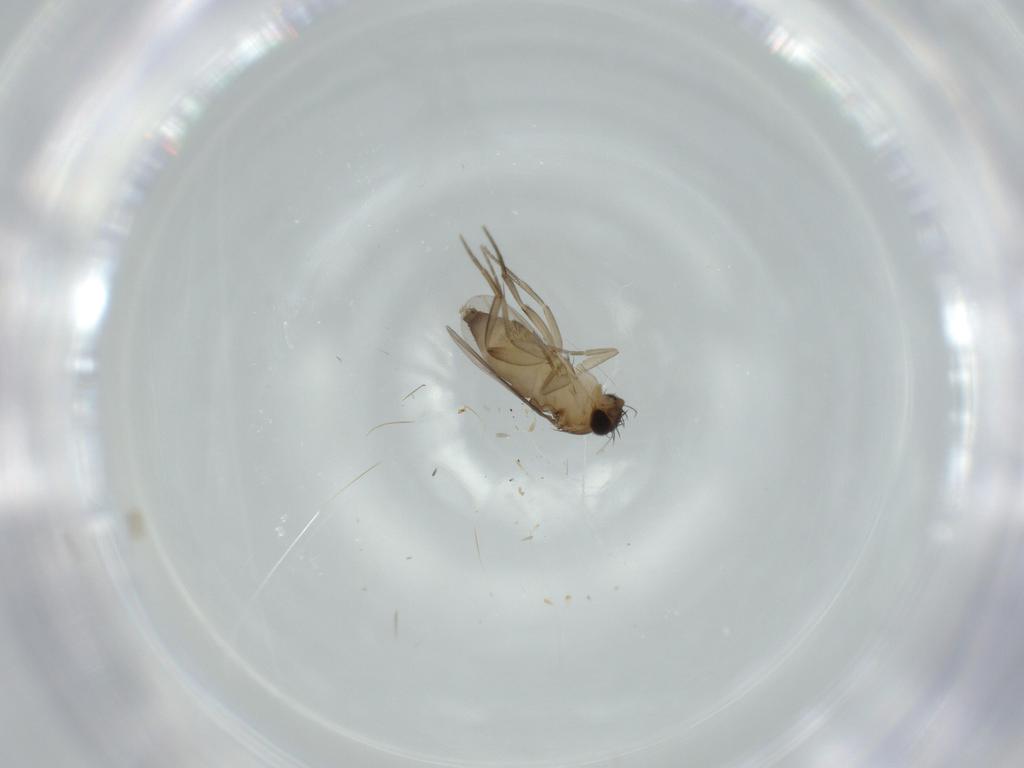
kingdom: Animalia
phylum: Arthropoda
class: Insecta
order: Diptera
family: Phoridae
